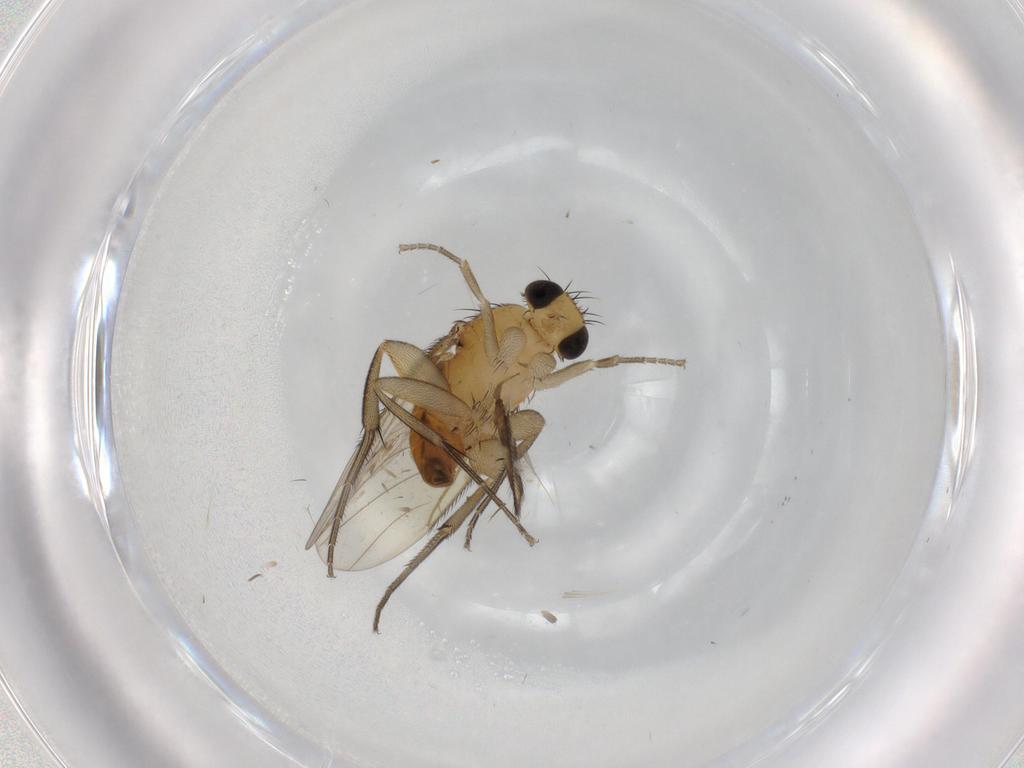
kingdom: Animalia
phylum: Arthropoda
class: Insecta
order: Diptera
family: Phoridae
